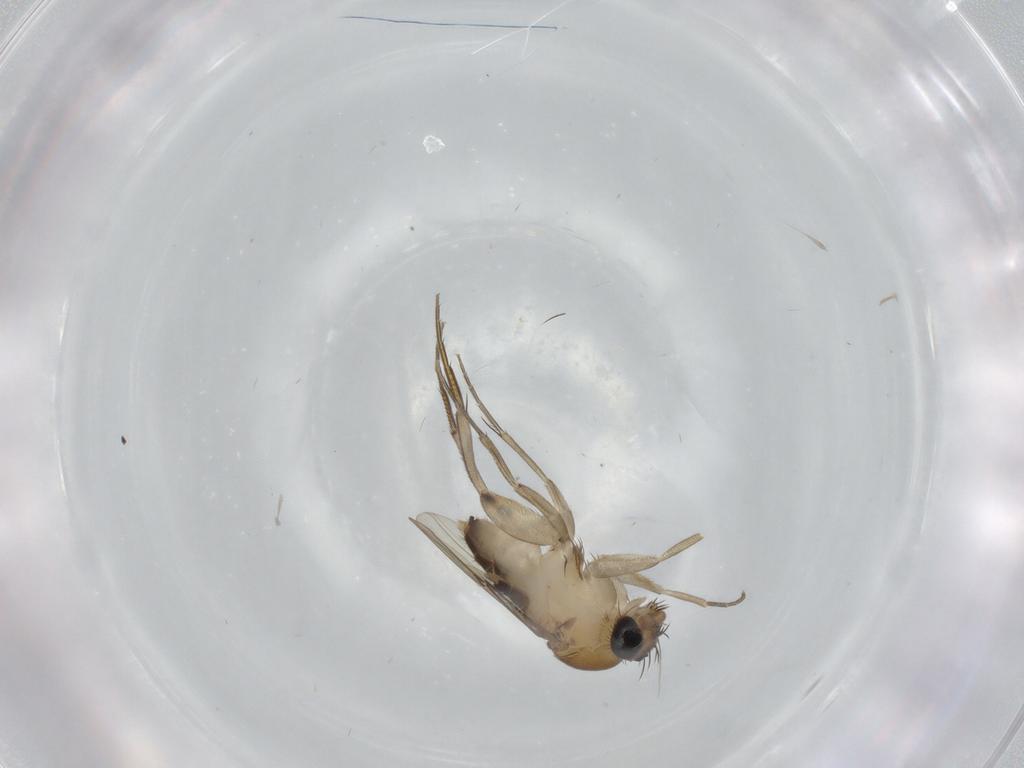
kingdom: Animalia
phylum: Arthropoda
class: Insecta
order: Diptera
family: Phoridae
